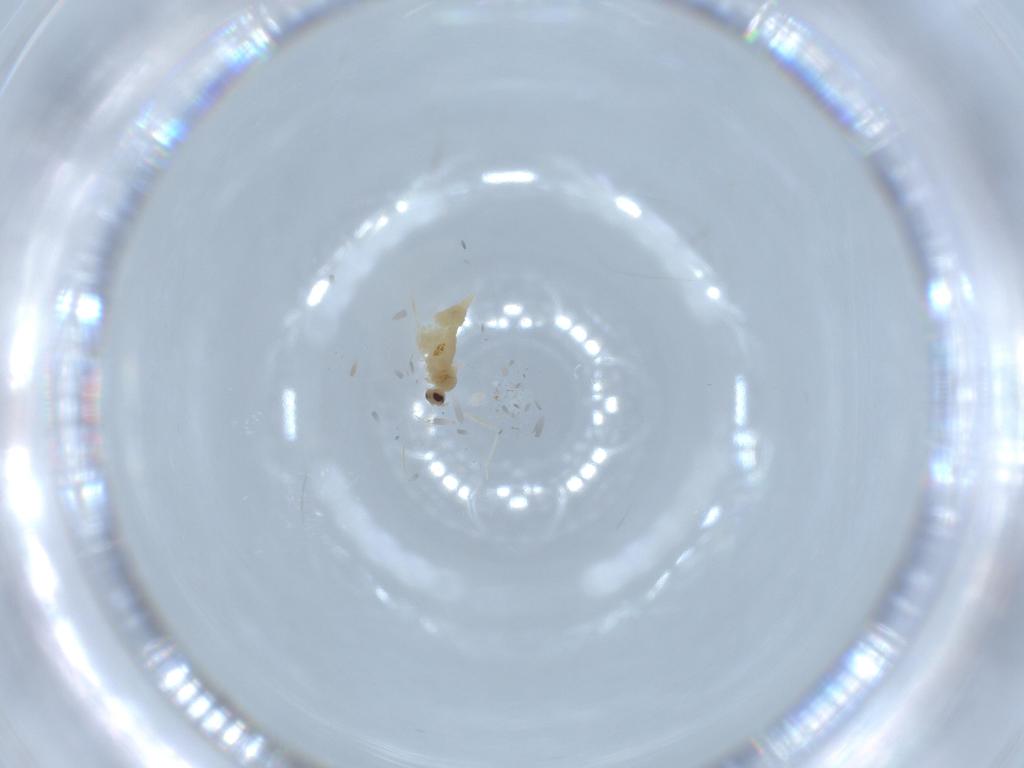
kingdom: Animalia
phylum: Arthropoda
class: Insecta
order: Diptera
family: Cecidomyiidae
